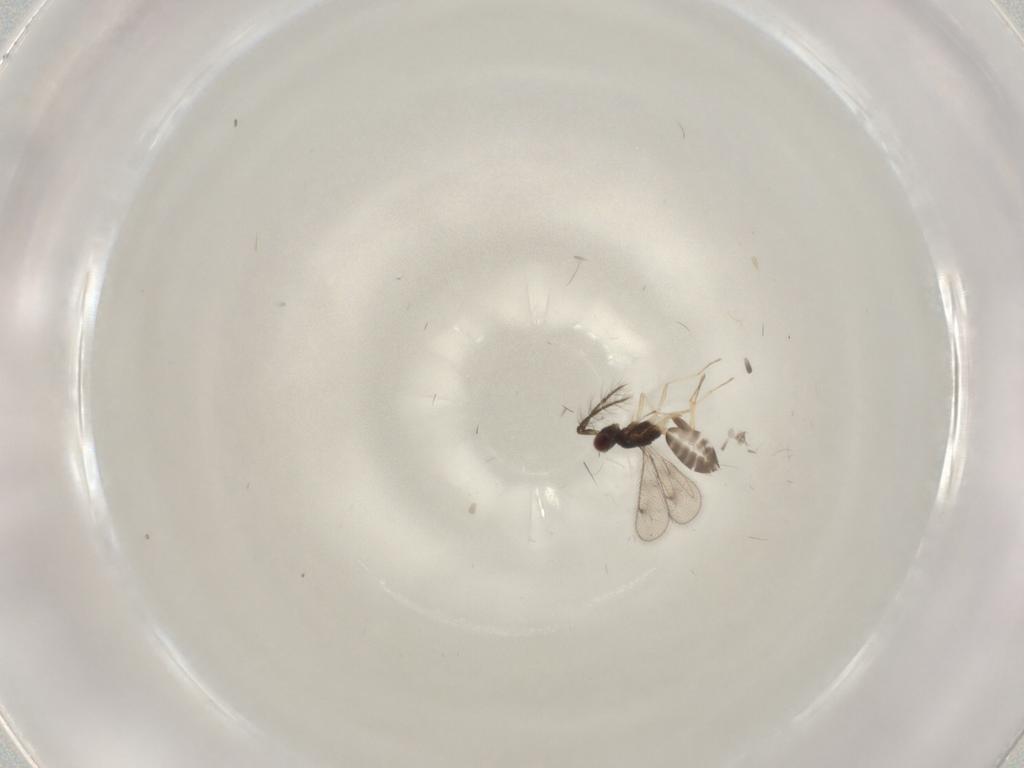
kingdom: Animalia
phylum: Arthropoda
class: Insecta
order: Hymenoptera
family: Eulophidae
